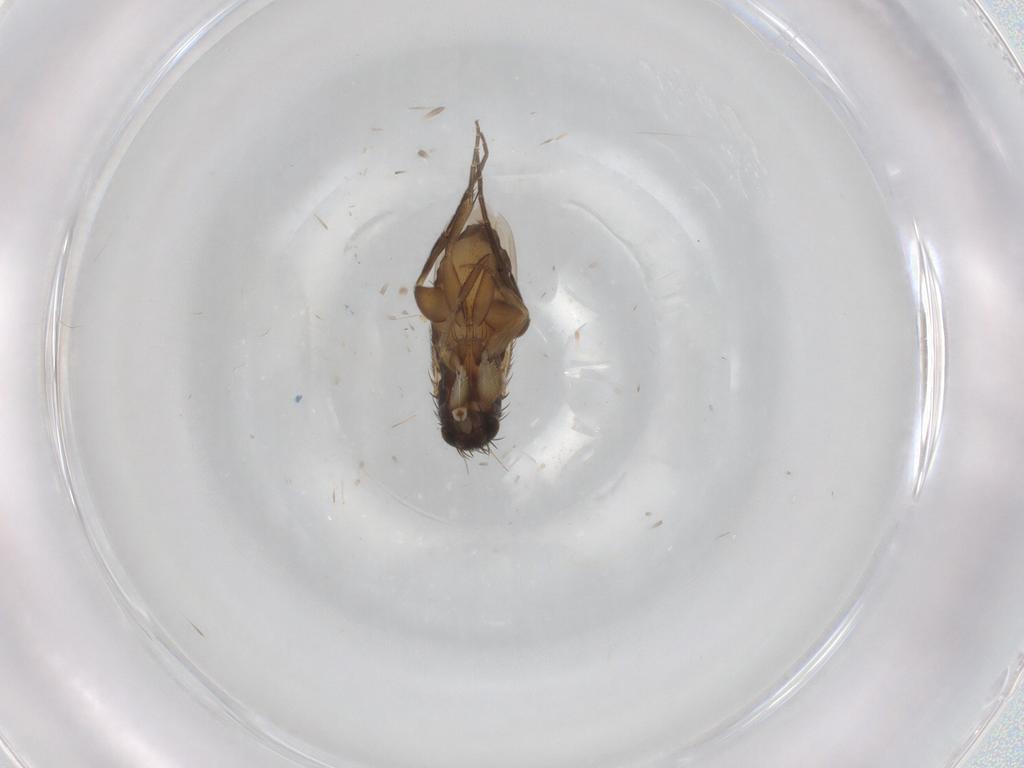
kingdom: Animalia
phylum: Arthropoda
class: Insecta
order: Diptera
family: Phoridae
